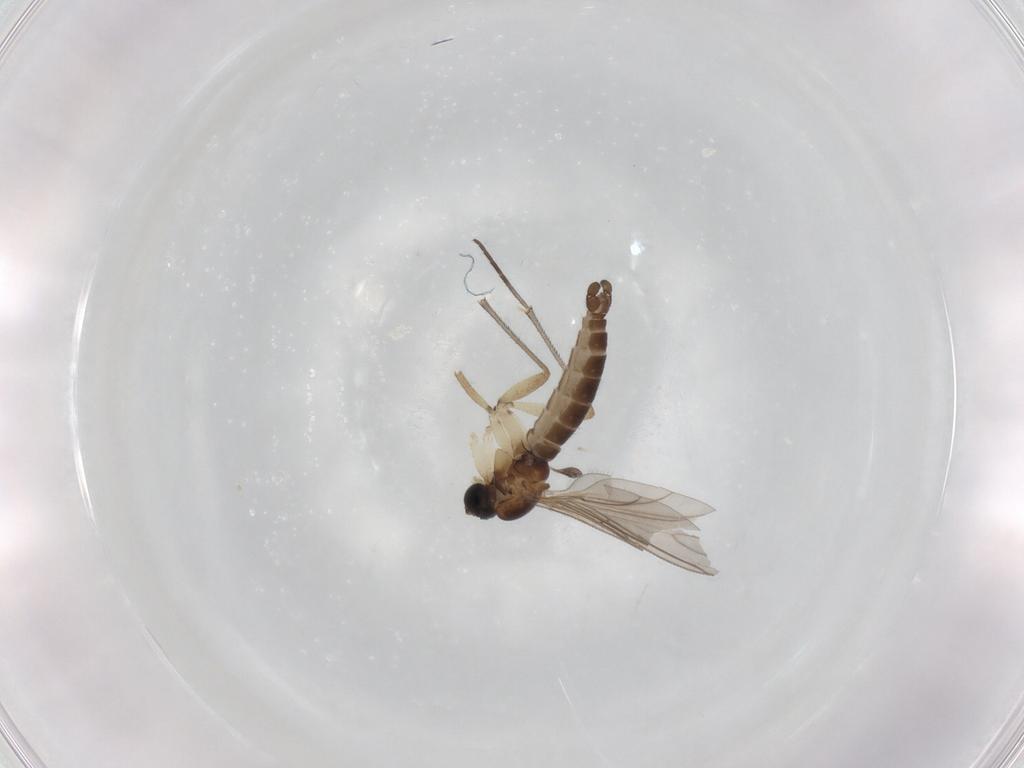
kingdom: Animalia
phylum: Arthropoda
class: Insecta
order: Diptera
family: Sciaridae
